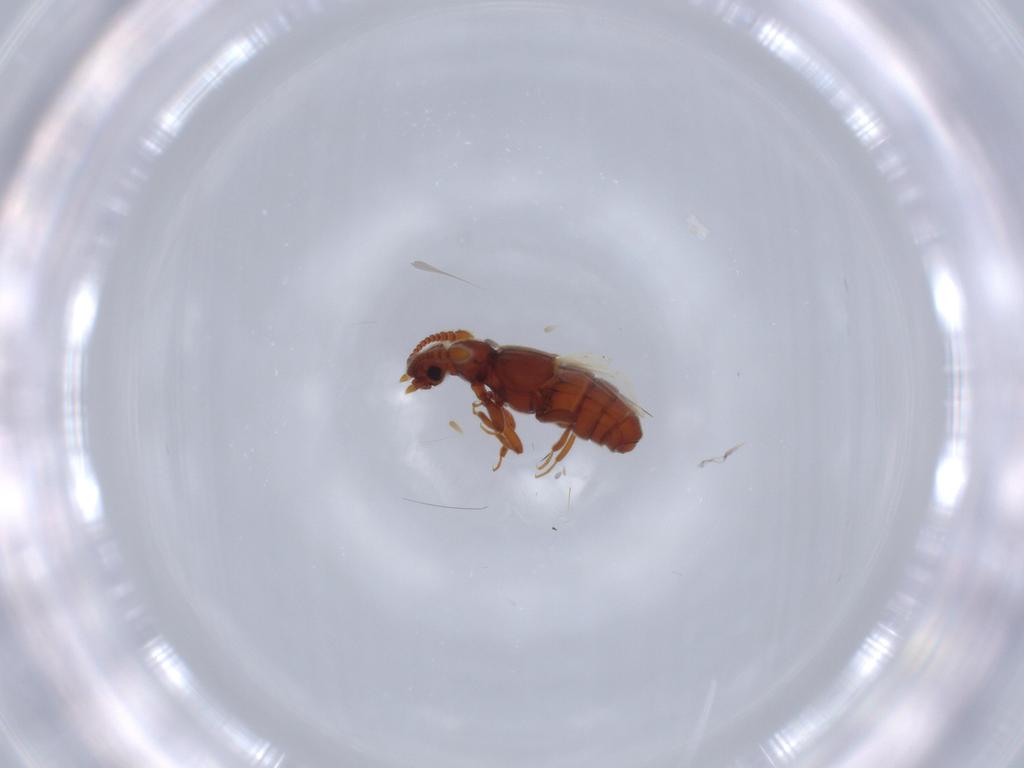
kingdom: Animalia
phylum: Arthropoda
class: Insecta
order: Coleoptera
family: Staphylinidae
